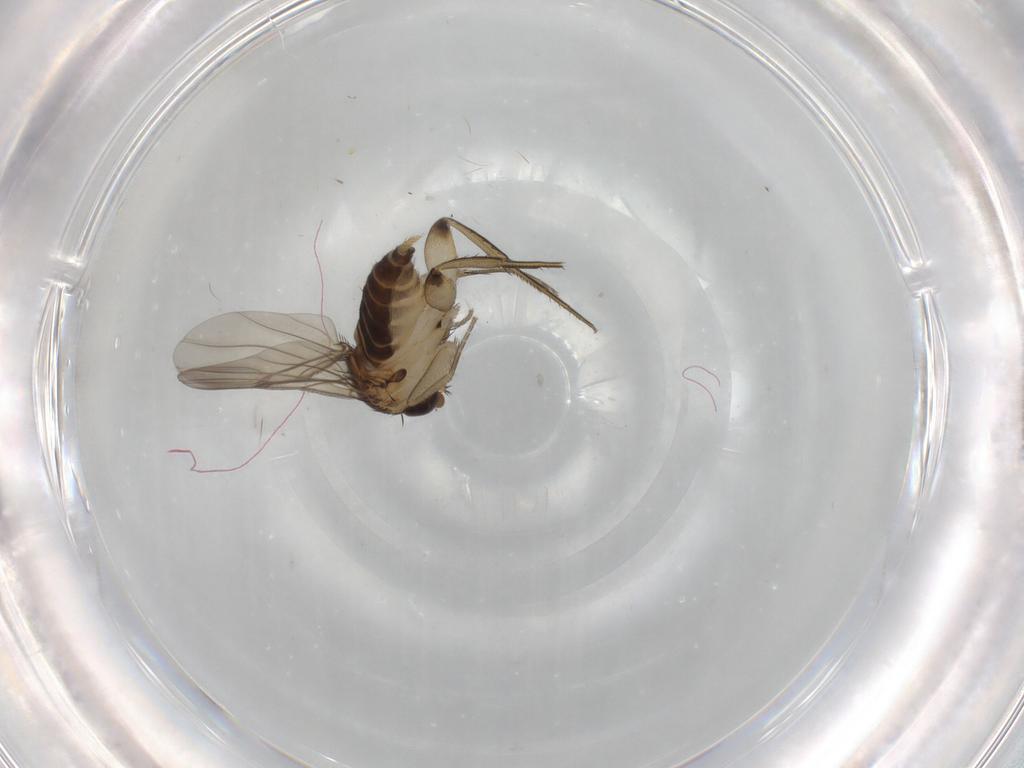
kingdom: Animalia
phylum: Arthropoda
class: Insecta
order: Diptera
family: Phoridae
